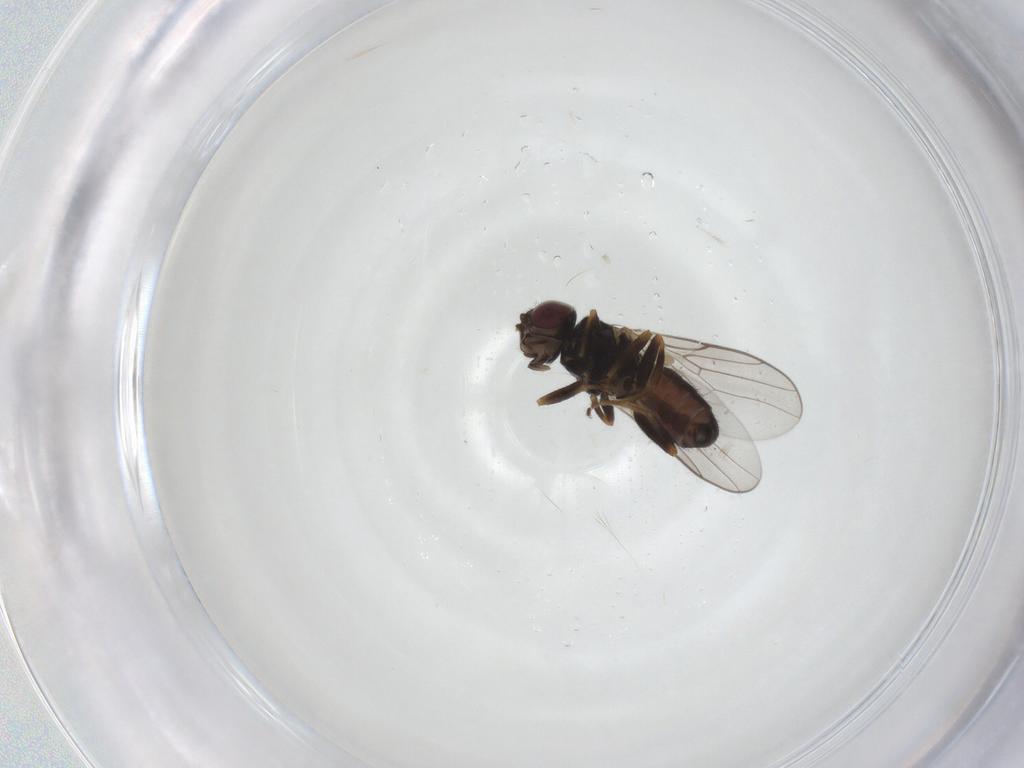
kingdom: Animalia
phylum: Arthropoda
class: Insecta
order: Diptera
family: Chloropidae
